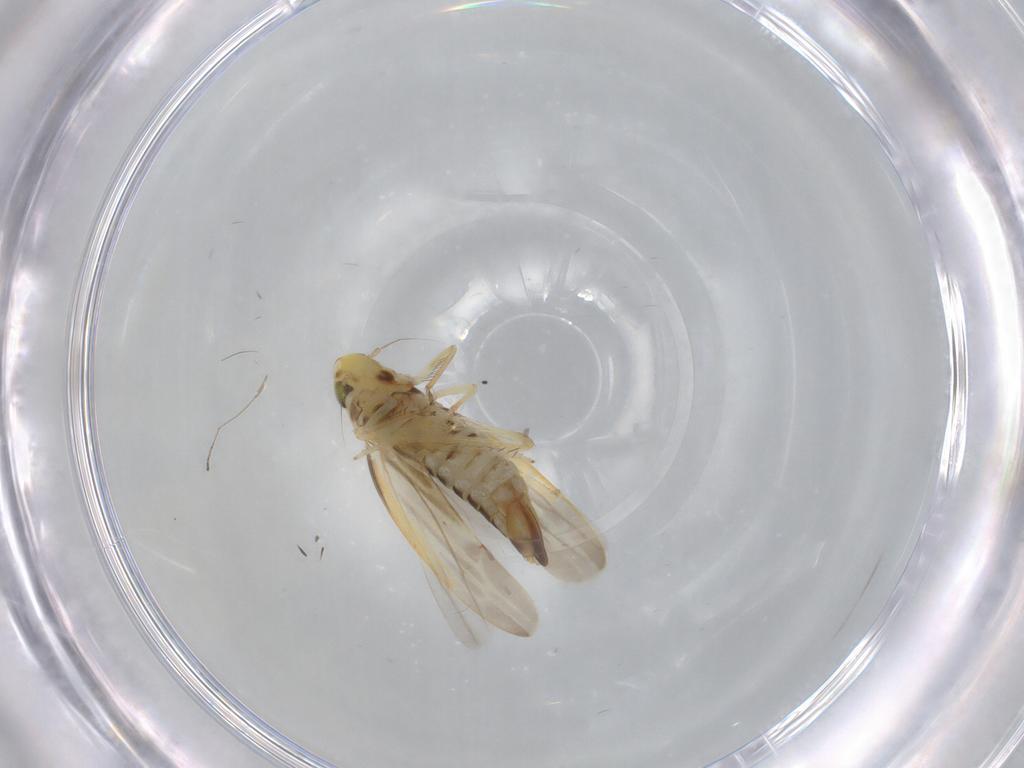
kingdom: Animalia
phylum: Arthropoda
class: Insecta
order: Hemiptera
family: Cicadellidae
